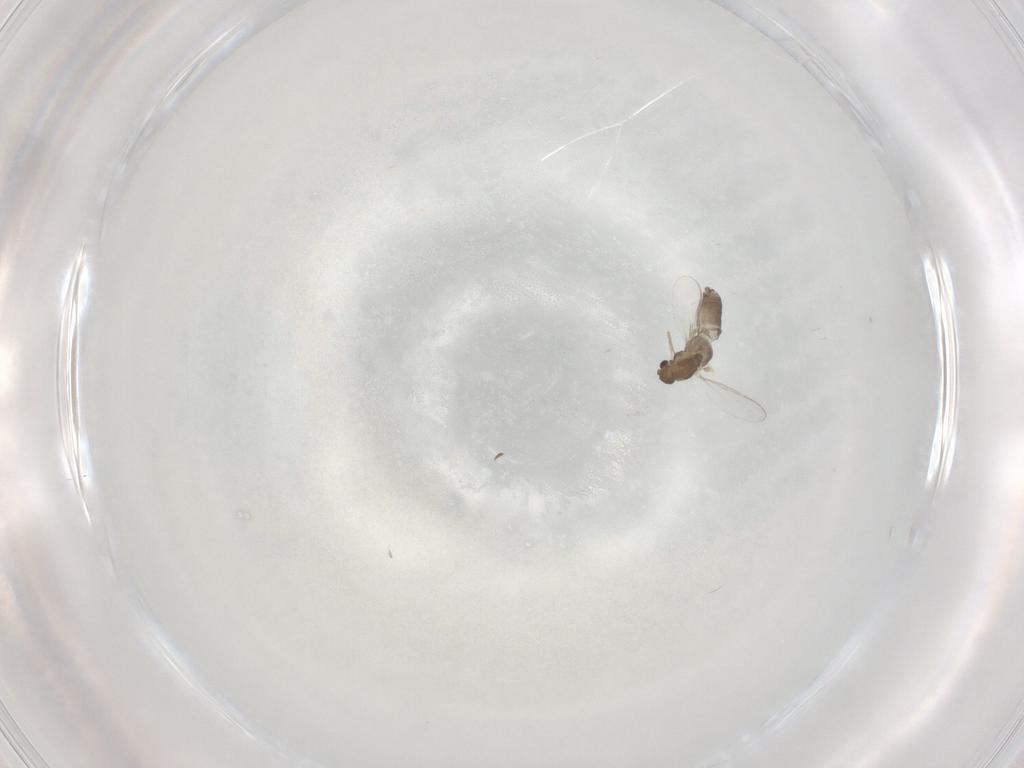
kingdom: Animalia
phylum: Arthropoda
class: Insecta
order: Diptera
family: Chironomidae
